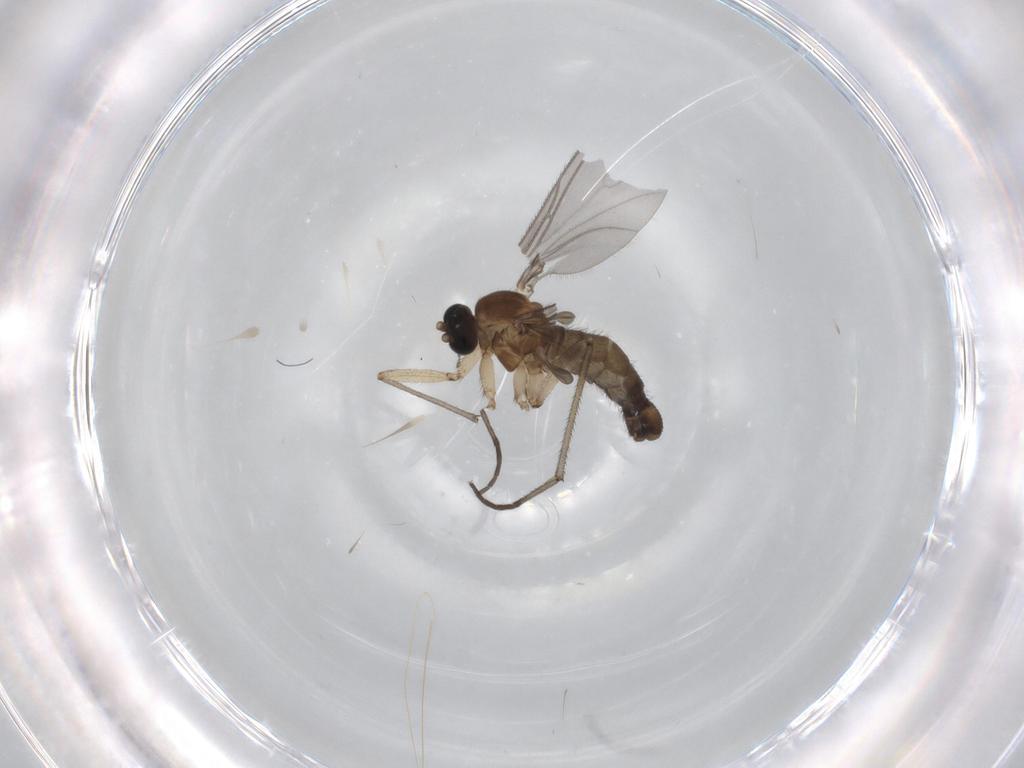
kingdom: Animalia
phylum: Arthropoda
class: Insecta
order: Diptera
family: Sciaridae
